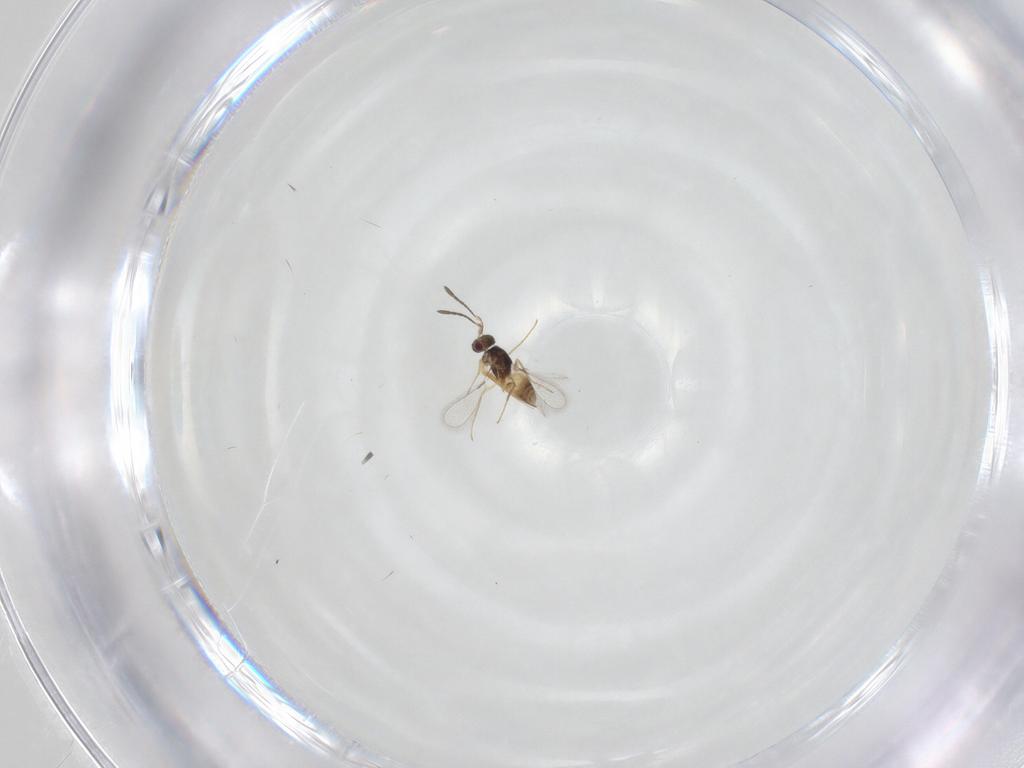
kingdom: Animalia
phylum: Arthropoda
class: Insecta
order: Hymenoptera
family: Mymaridae
